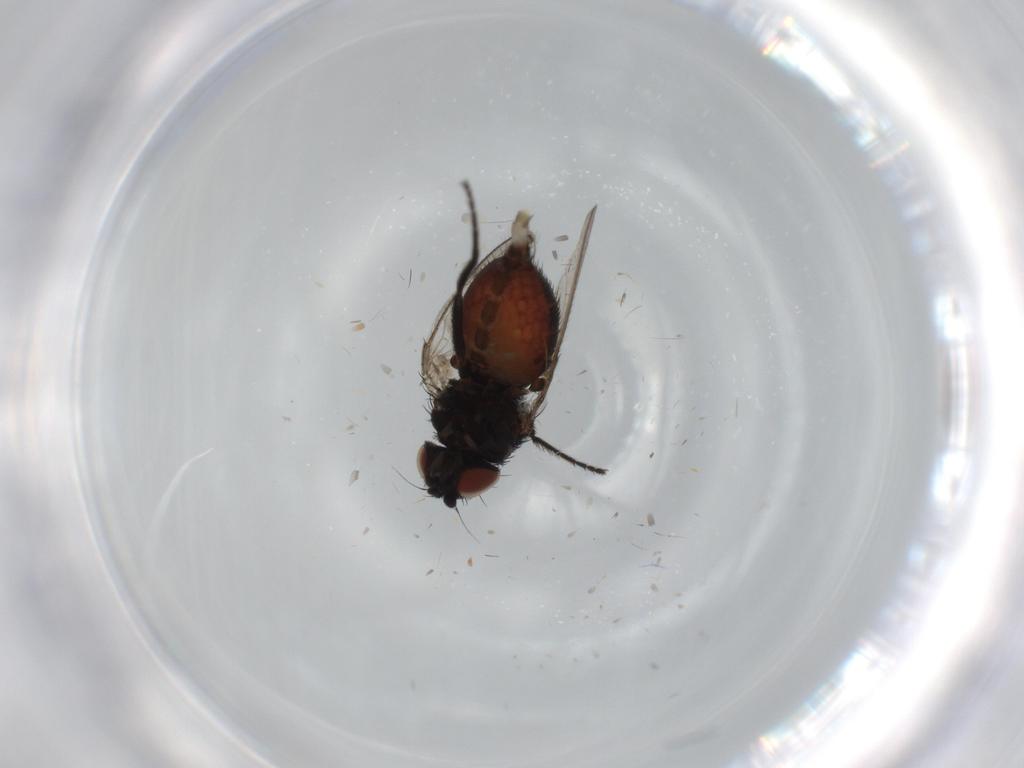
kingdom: Animalia
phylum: Arthropoda
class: Insecta
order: Diptera
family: Milichiidae
